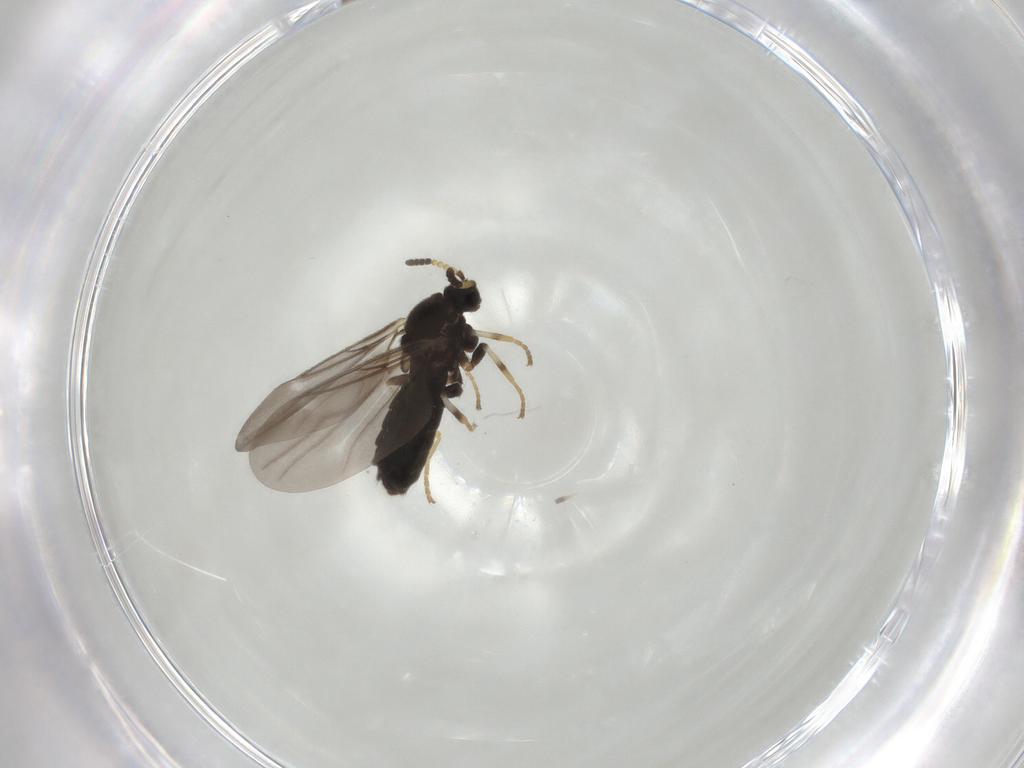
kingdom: Animalia
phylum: Arthropoda
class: Insecta
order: Diptera
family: Scatopsidae
